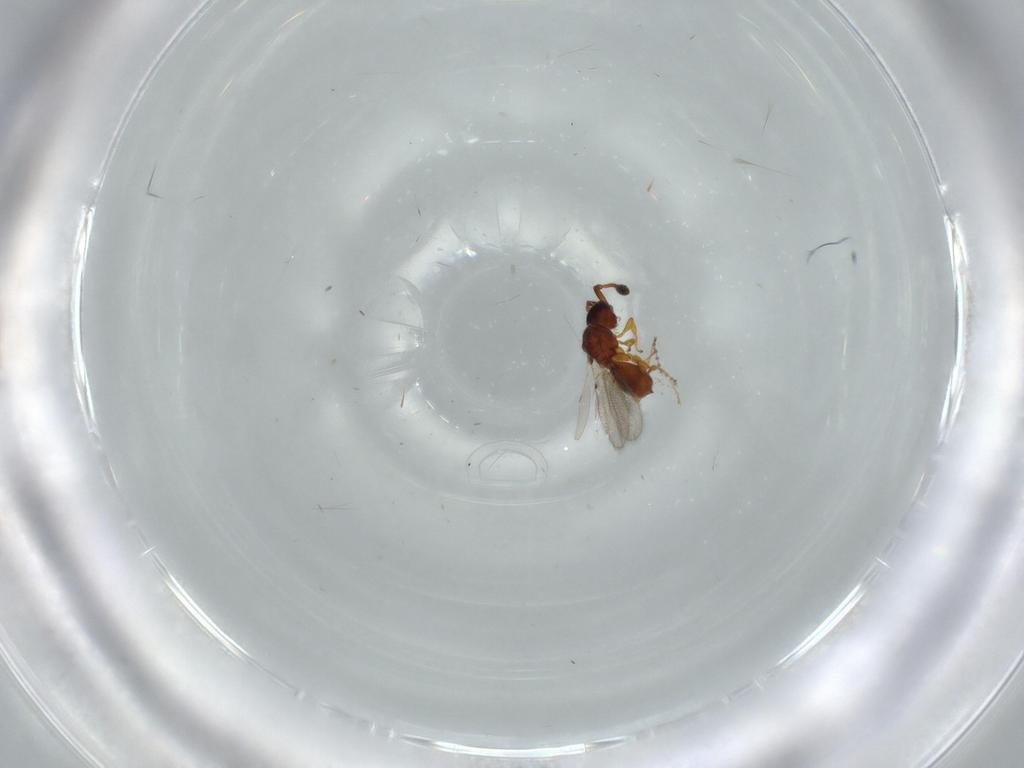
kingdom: Animalia
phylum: Arthropoda
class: Insecta
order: Hymenoptera
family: Diapriidae
